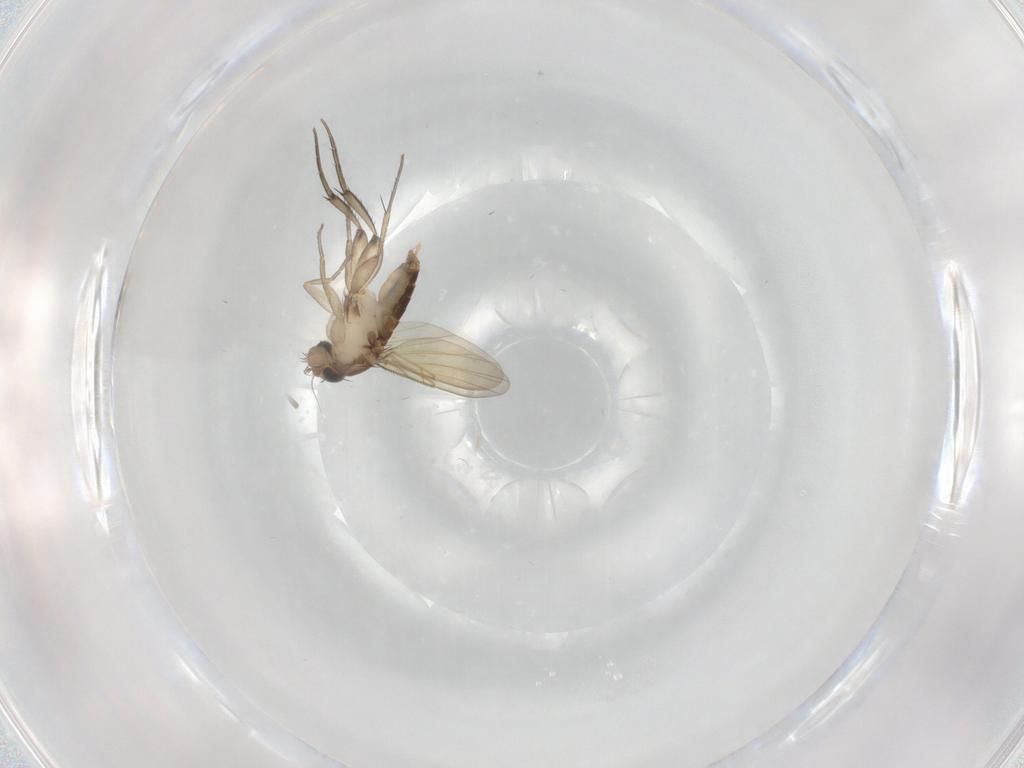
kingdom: Animalia
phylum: Arthropoda
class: Insecta
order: Diptera
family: Phoridae
